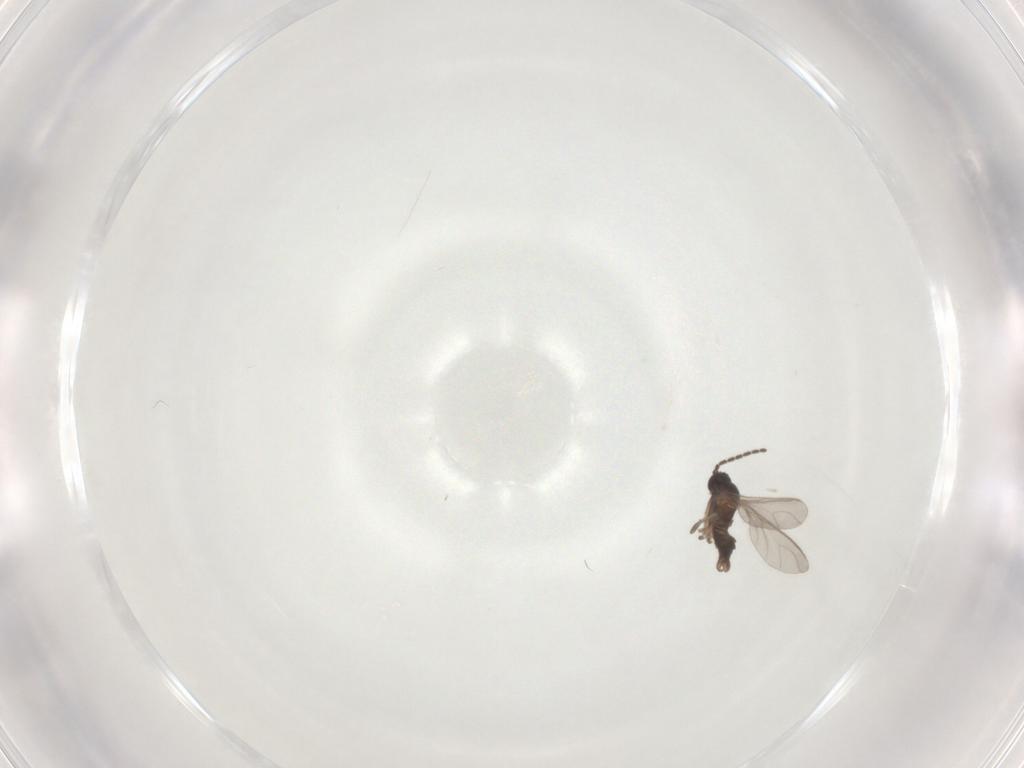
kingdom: Animalia
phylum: Arthropoda
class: Insecta
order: Diptera
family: Sciaridae
